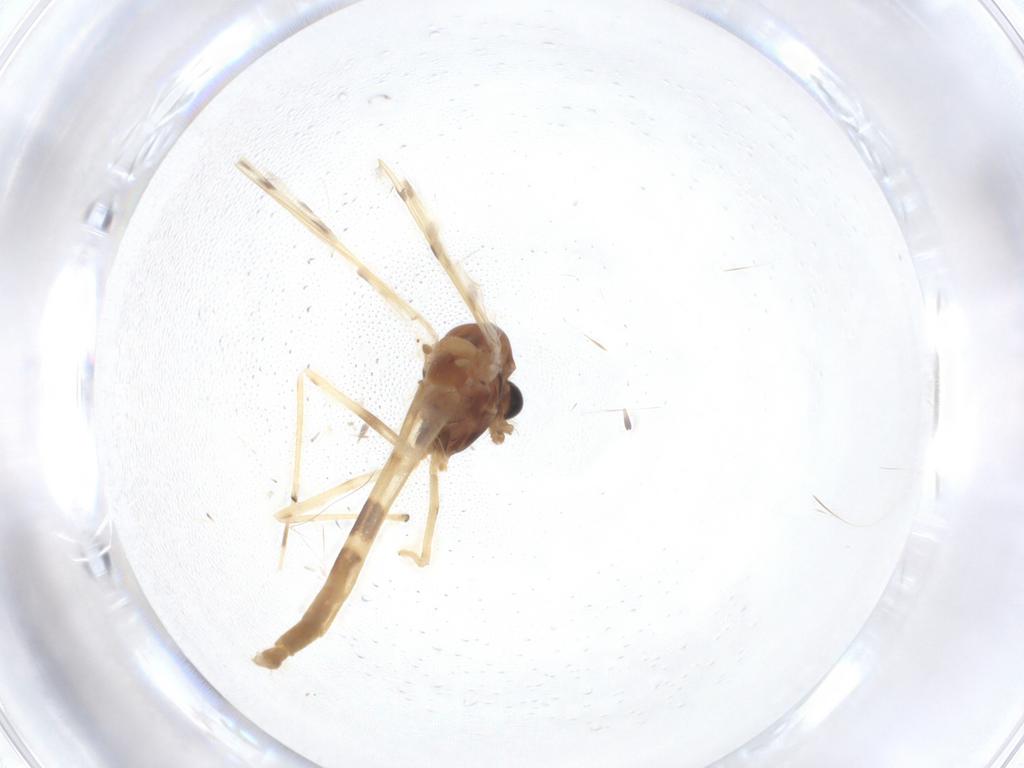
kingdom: Animalia
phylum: Arthropoda
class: Insecta
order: Diptera
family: Chironomidae
